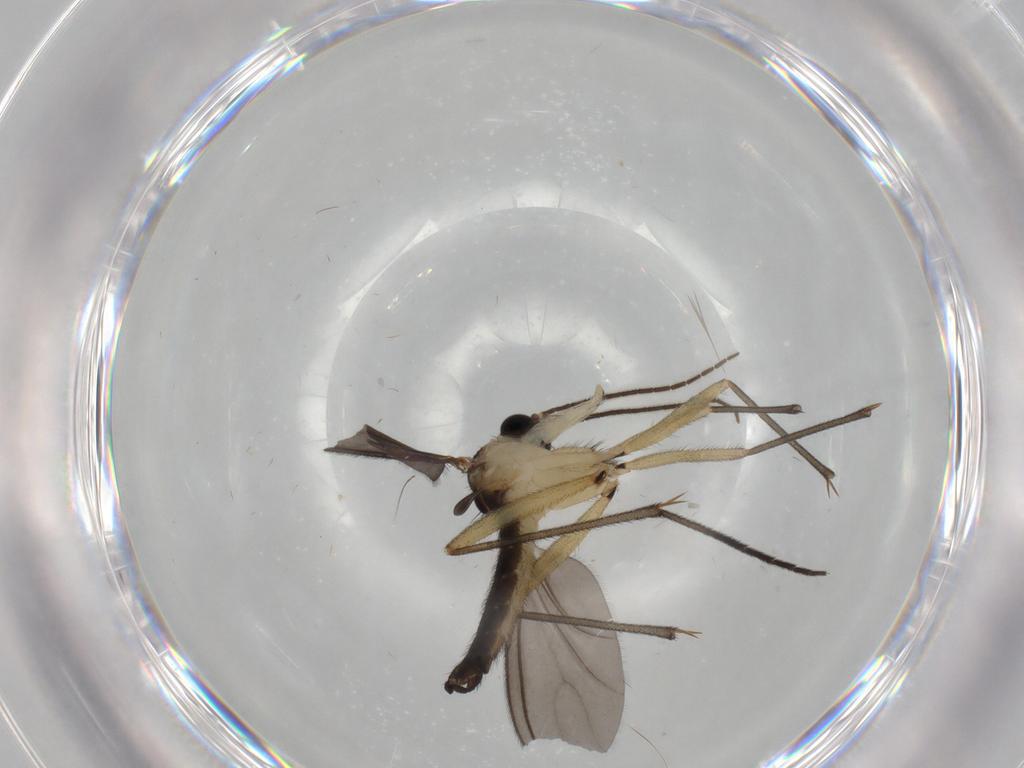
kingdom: Animalia
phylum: Arthropoda
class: Insecta
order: Diptera
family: Sciaridae
